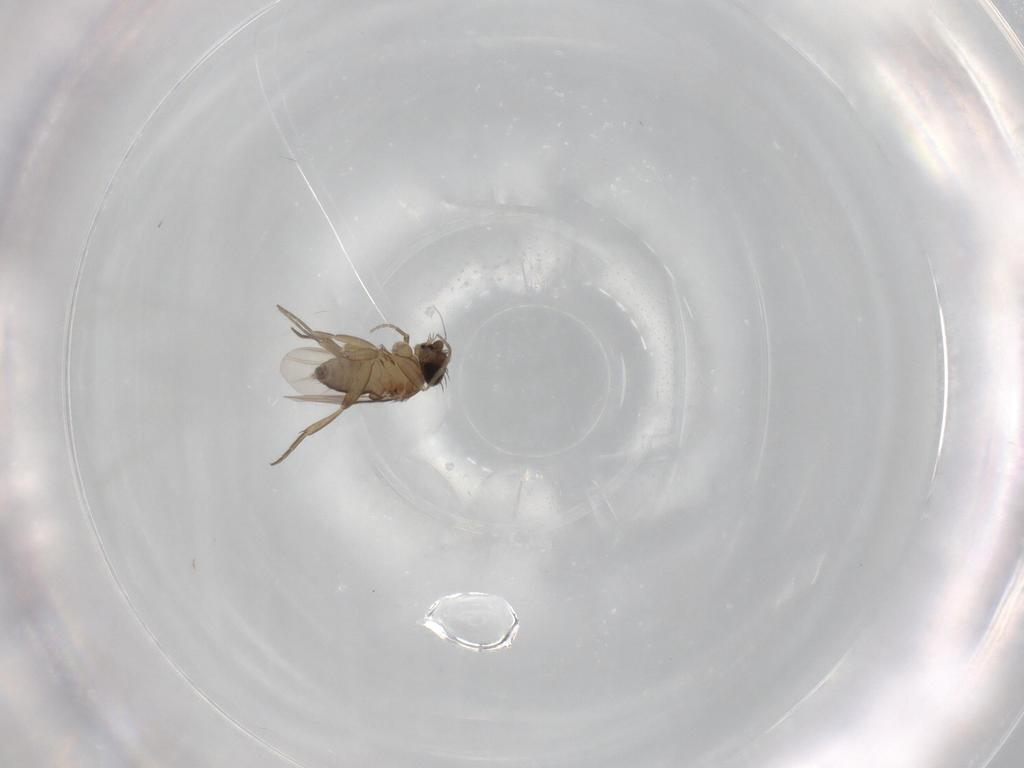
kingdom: Animalia
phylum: Arthropoda
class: Insecta
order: Diptera
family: Phoridae
